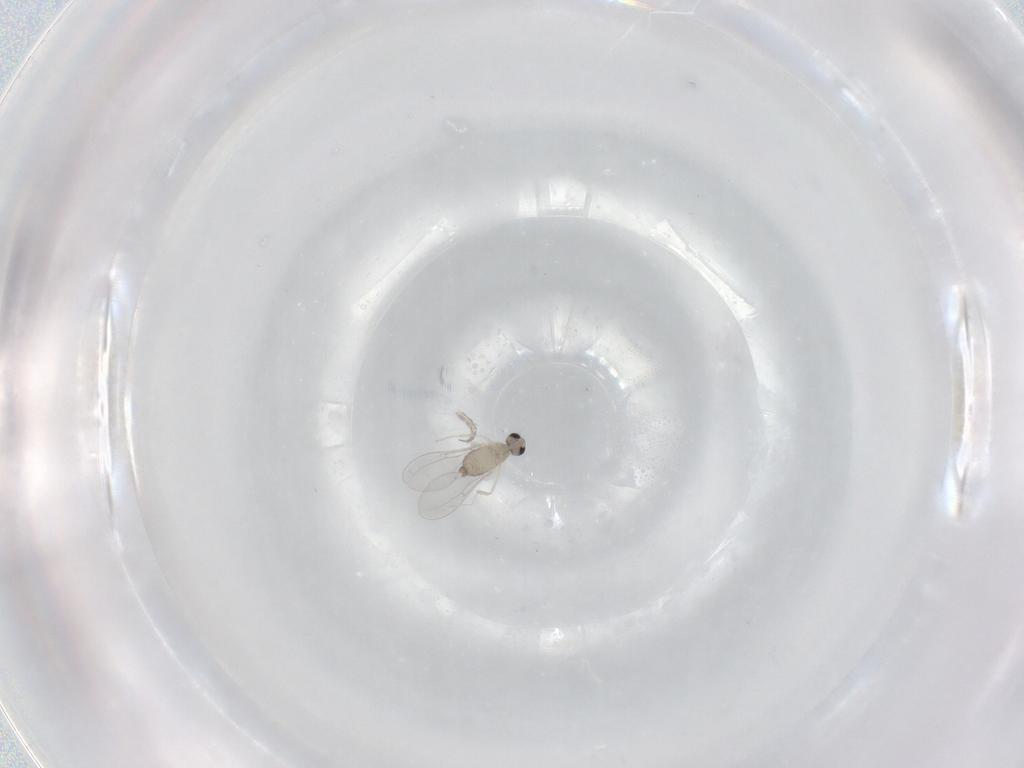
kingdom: Animalia
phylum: Arthropoda
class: Insecta
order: Diptera
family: Cecidomyiidae
